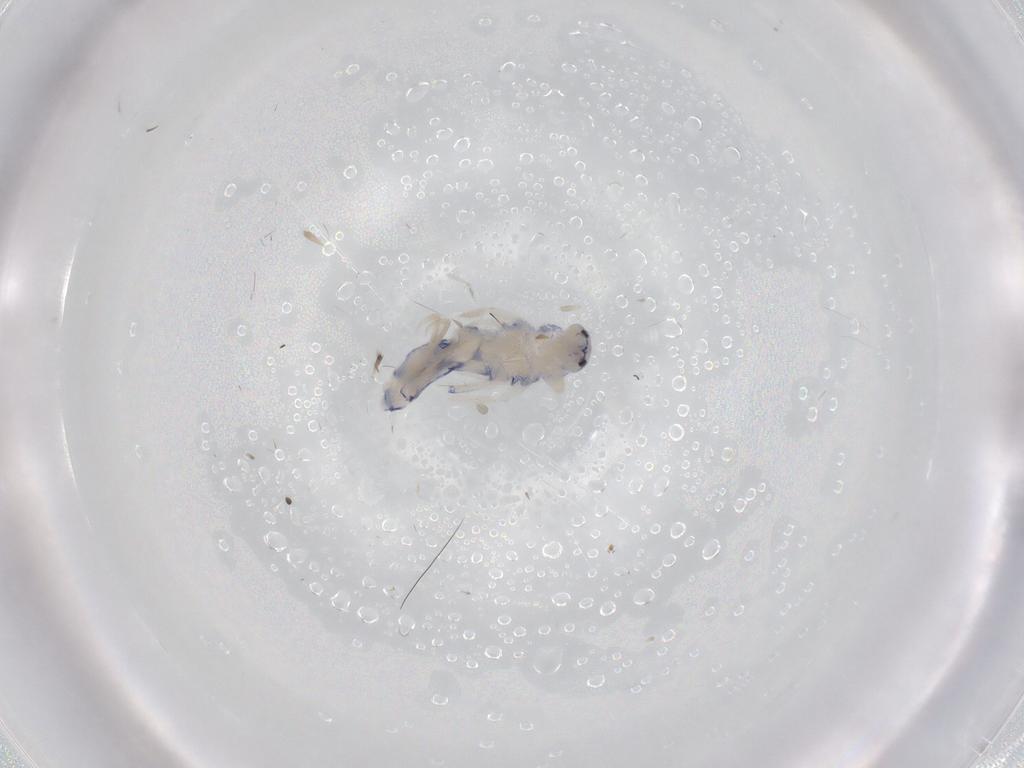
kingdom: Animalia
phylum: Arthropoda
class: Collembola
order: Entomobryomorpha
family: Entomobryidae
